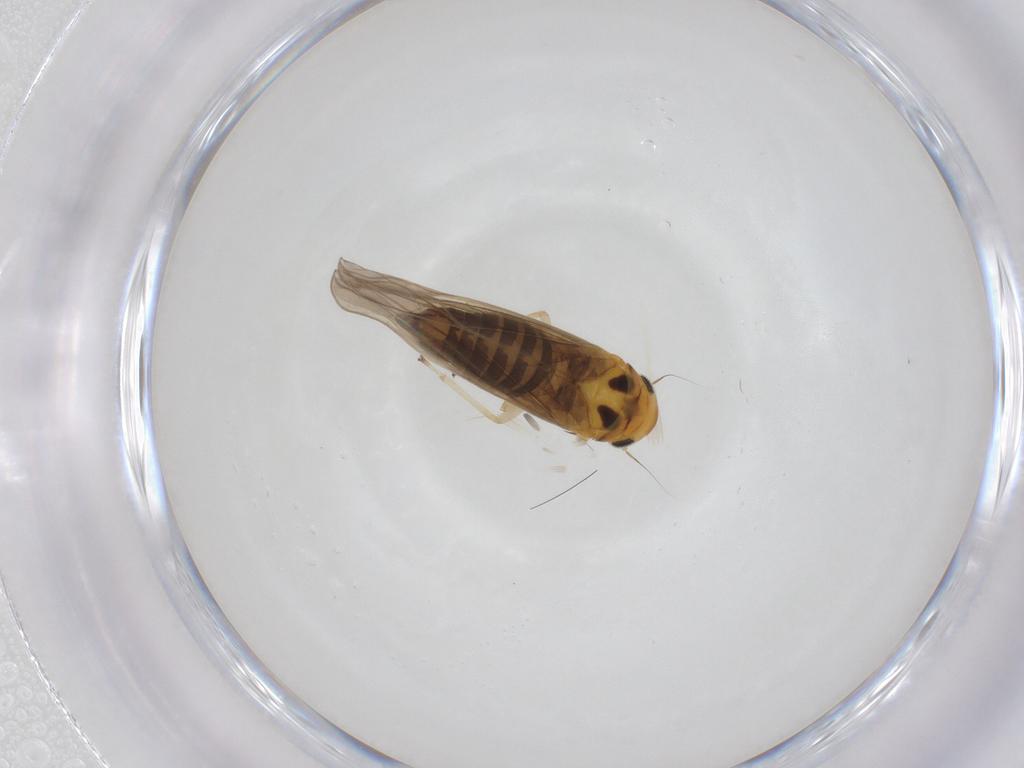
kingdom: Animalia
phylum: Arthropoda
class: Insecta
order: Hemiptera
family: Cicadellidae
